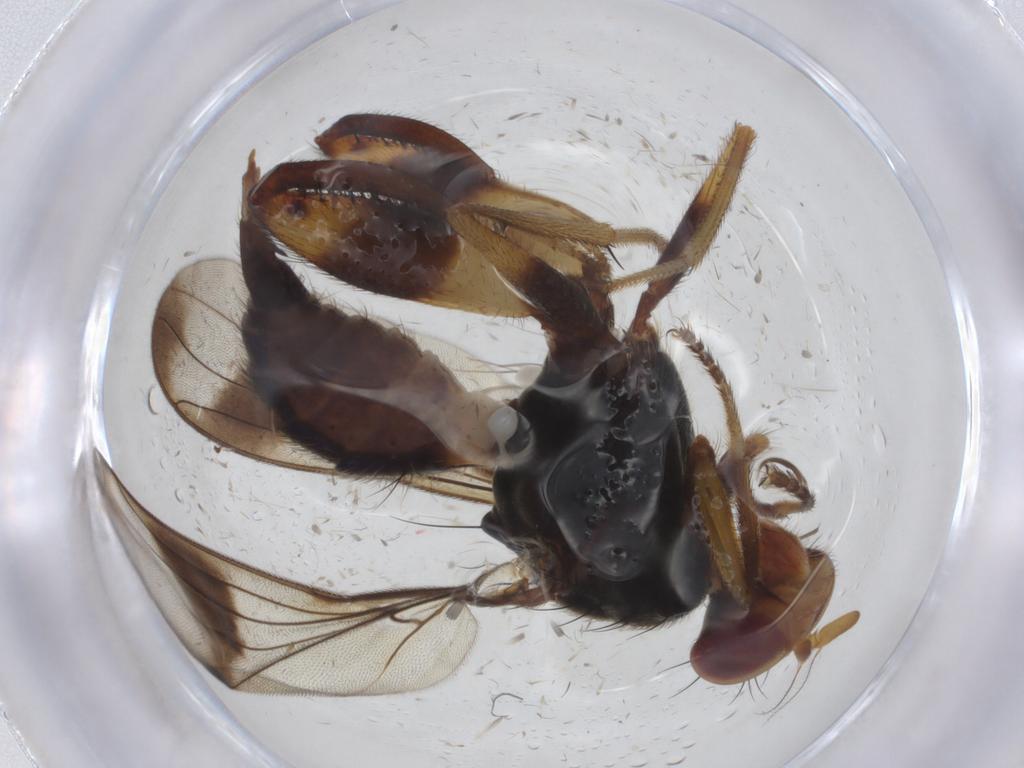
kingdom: Animalia
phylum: Arthropoda
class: Insecta
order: Diptera
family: Chironomidae
